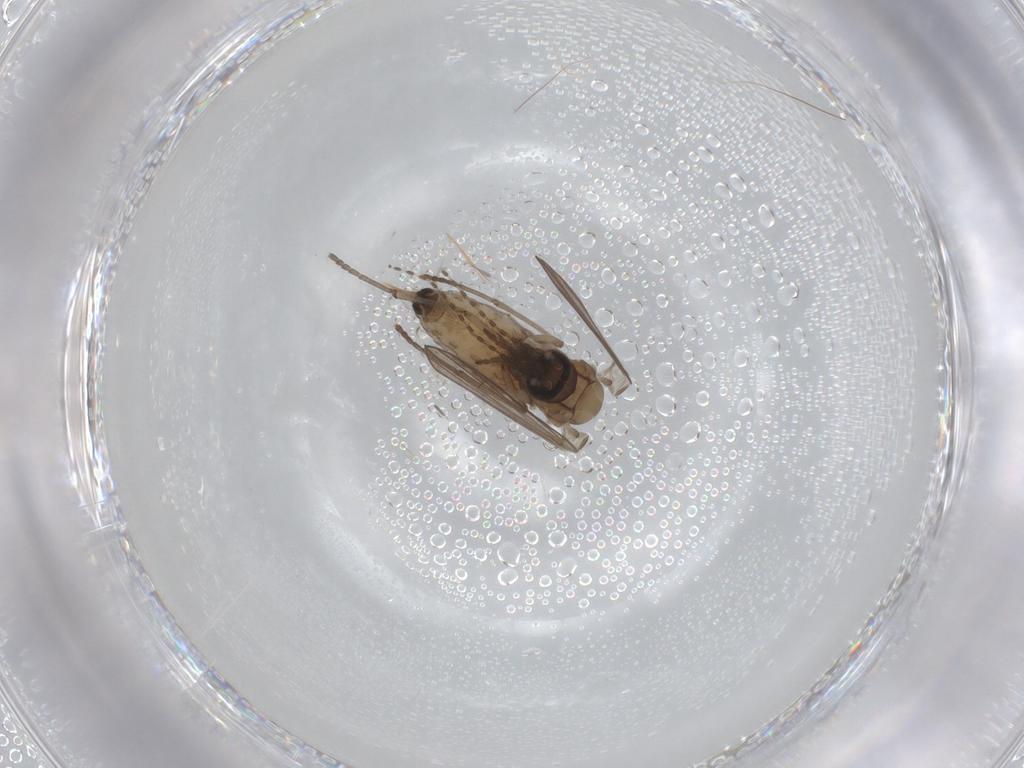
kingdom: Animalia
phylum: Arthropoda
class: Insecta
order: Diptera
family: Psychodidae
